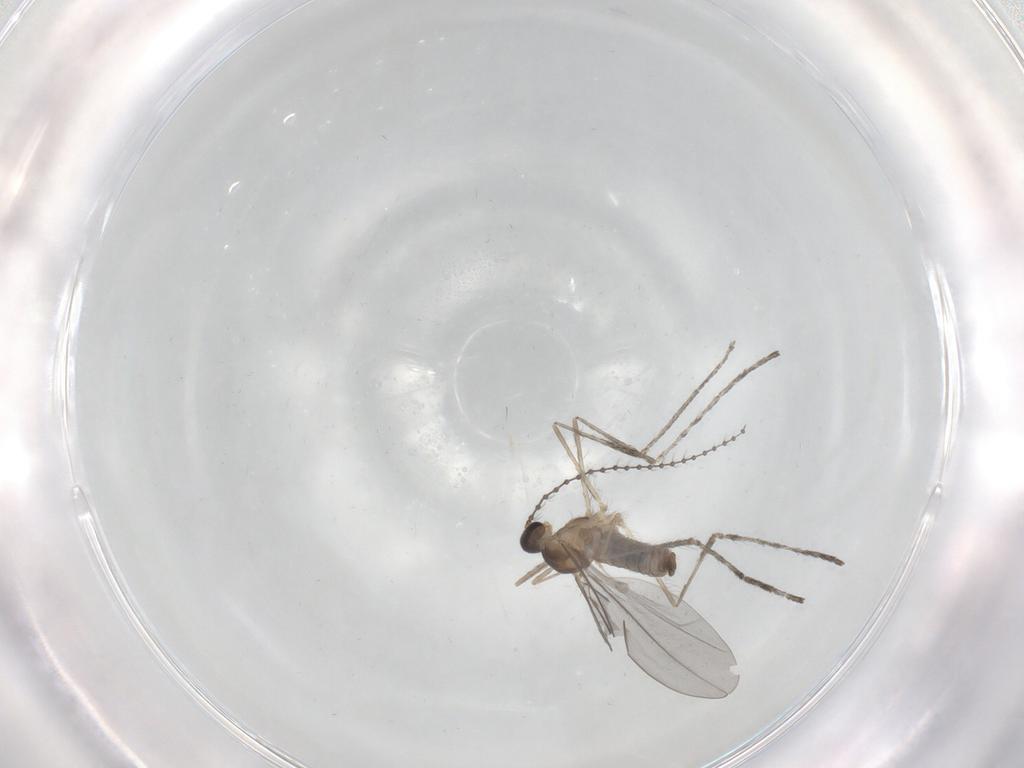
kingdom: Animalia
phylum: Arthropoda
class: Insecta
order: Diptera
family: Cecidomyiidae
